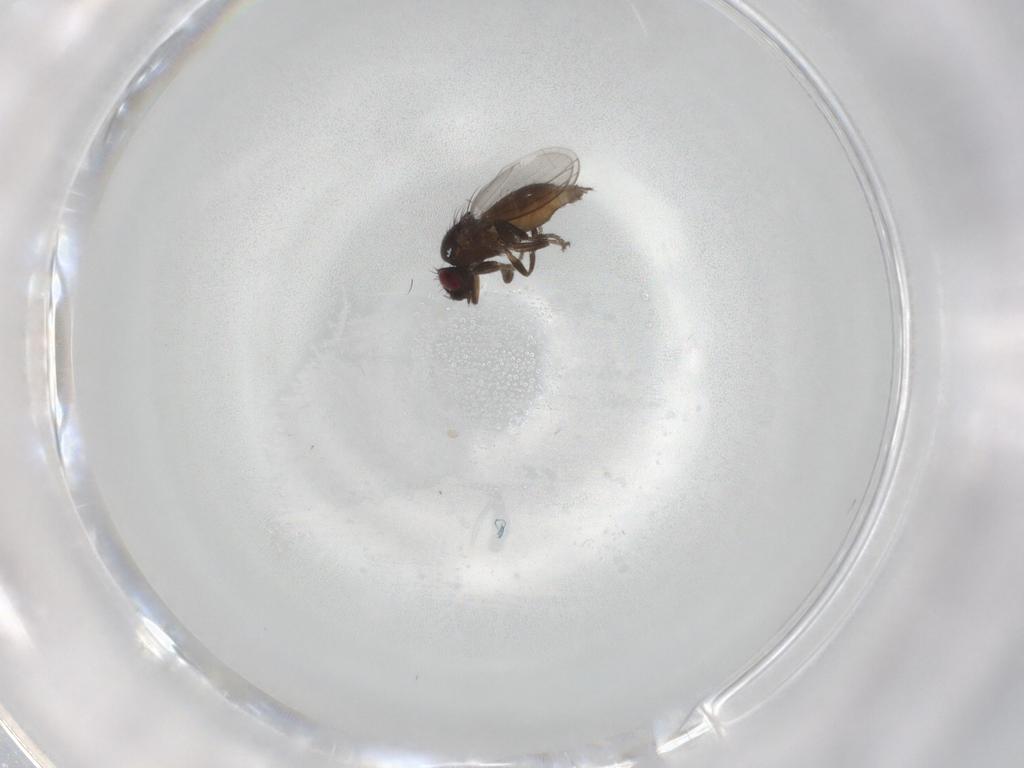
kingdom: Animalia
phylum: Arthropoda
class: Insecta
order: Diptera
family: Milichiidae
